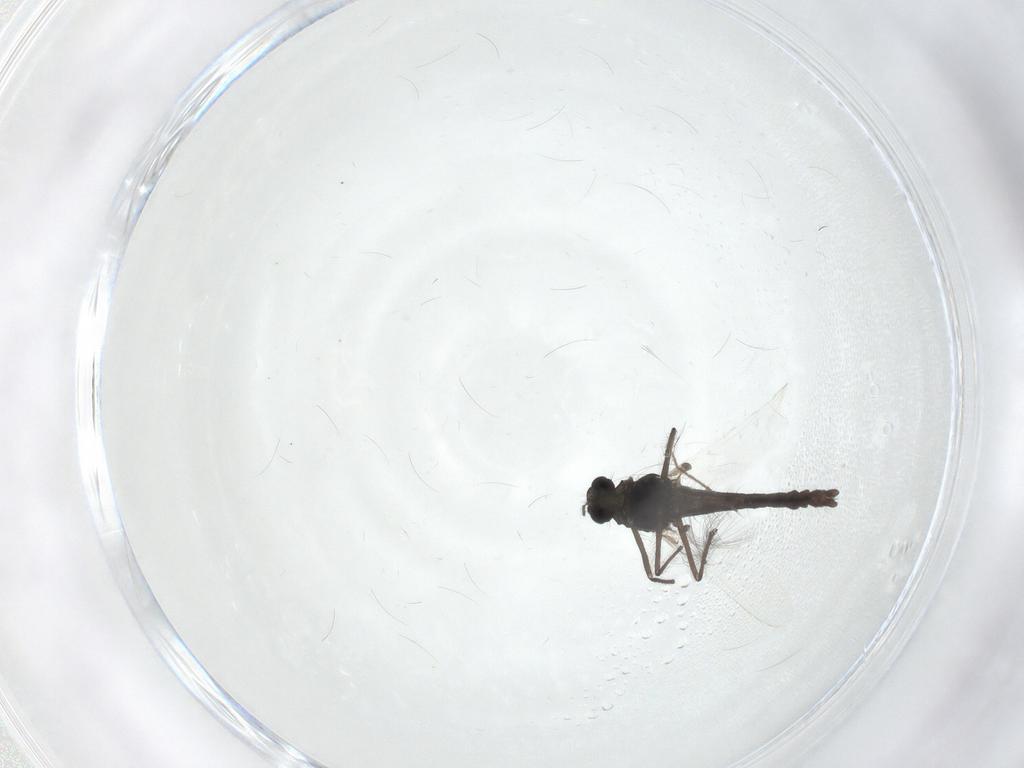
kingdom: Animalia
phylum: Arthropoda
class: Insecta
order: Diptera
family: Chironomidae
